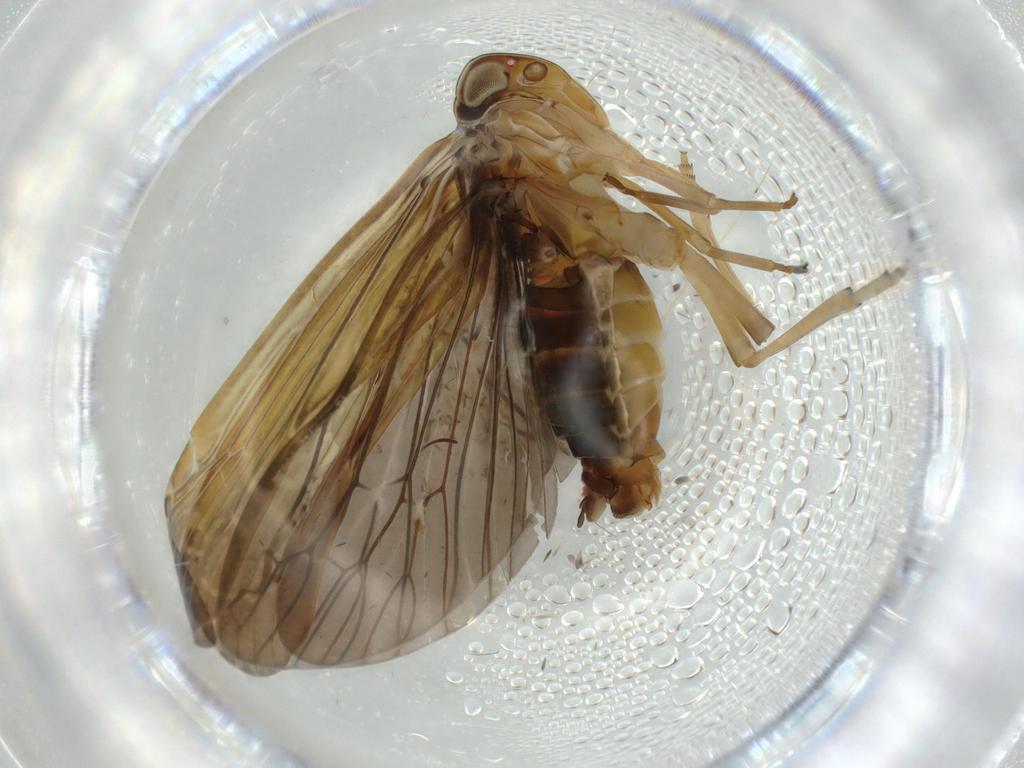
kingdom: Animalia
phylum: Arthropoda
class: Insecta
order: Hemiptera
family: Achilidae
